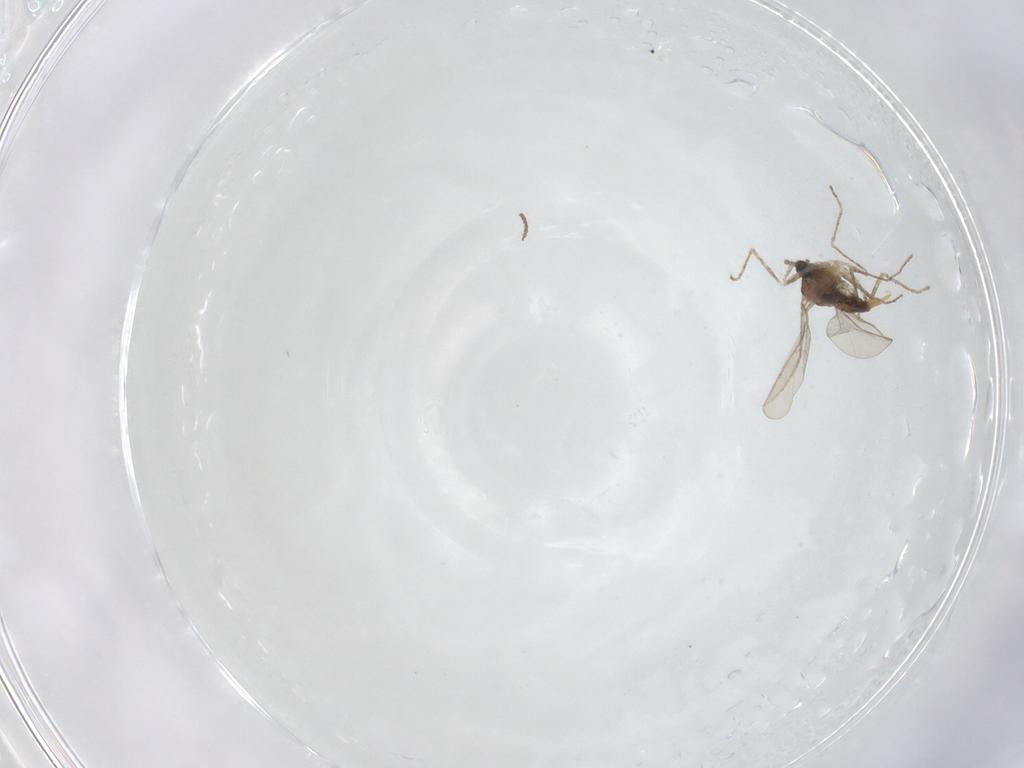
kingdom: Animalia
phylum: Arthropoda
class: Insecta
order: Diptera
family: Cecidomyiidae
